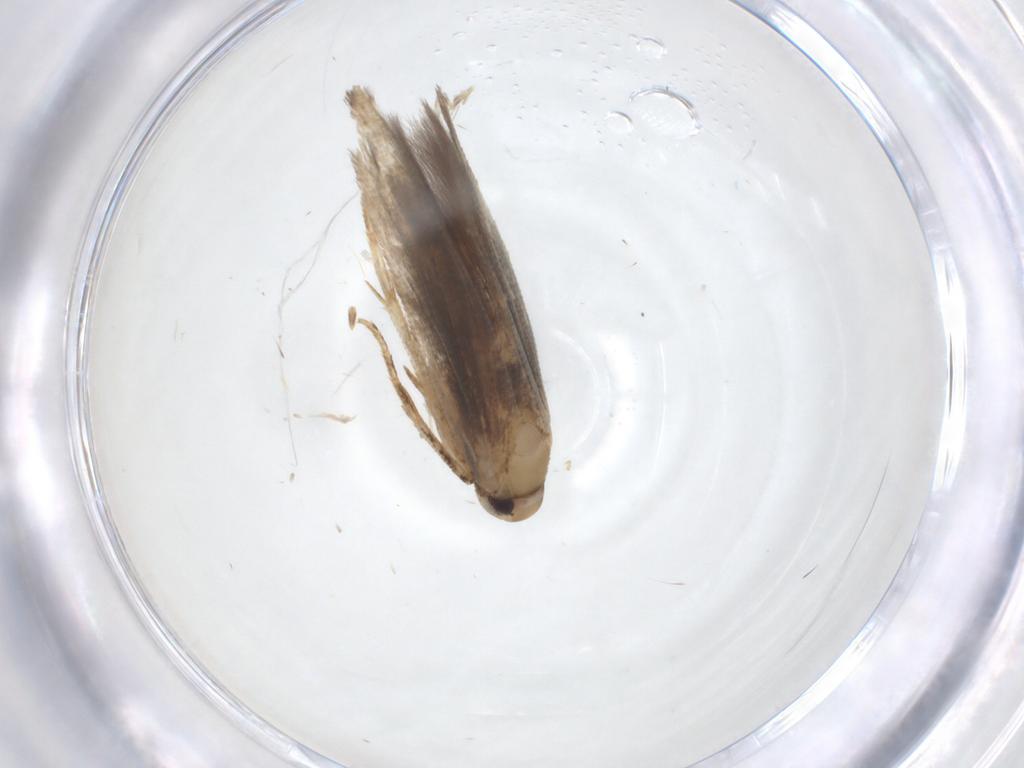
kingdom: Animalia
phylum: Arthropoda
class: Insecta
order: Lepidoptera
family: Cosmopterigidae
